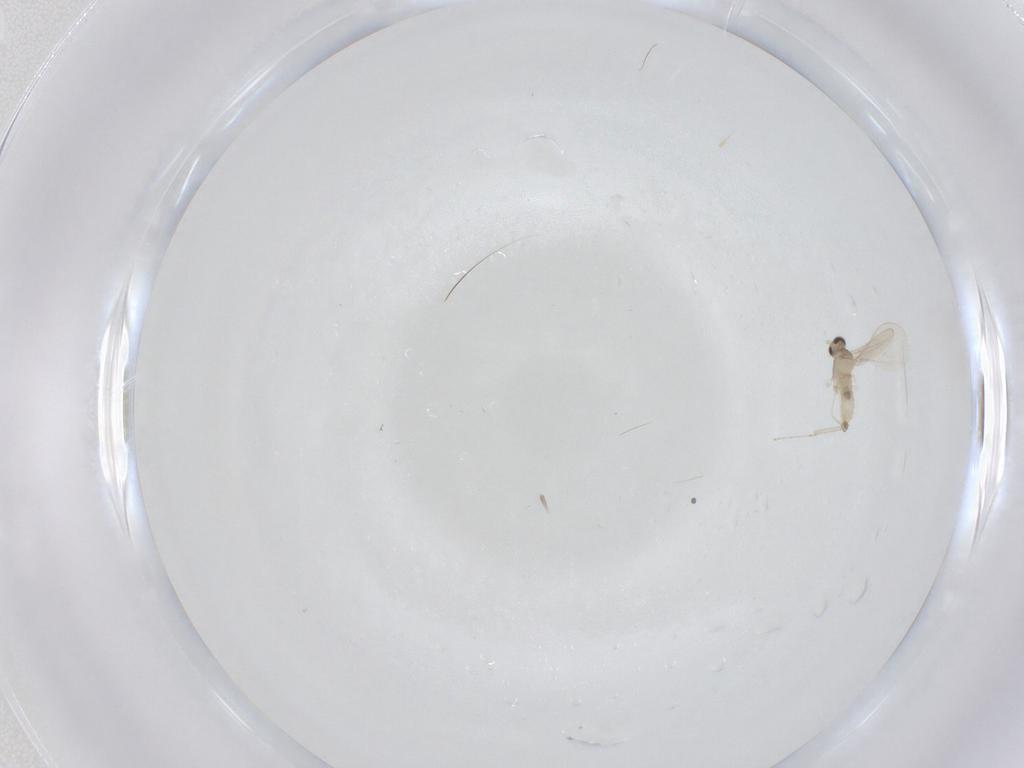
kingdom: Animalia
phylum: Arthropoda
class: Insecta
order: Diptera
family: Cecidomyiidae
